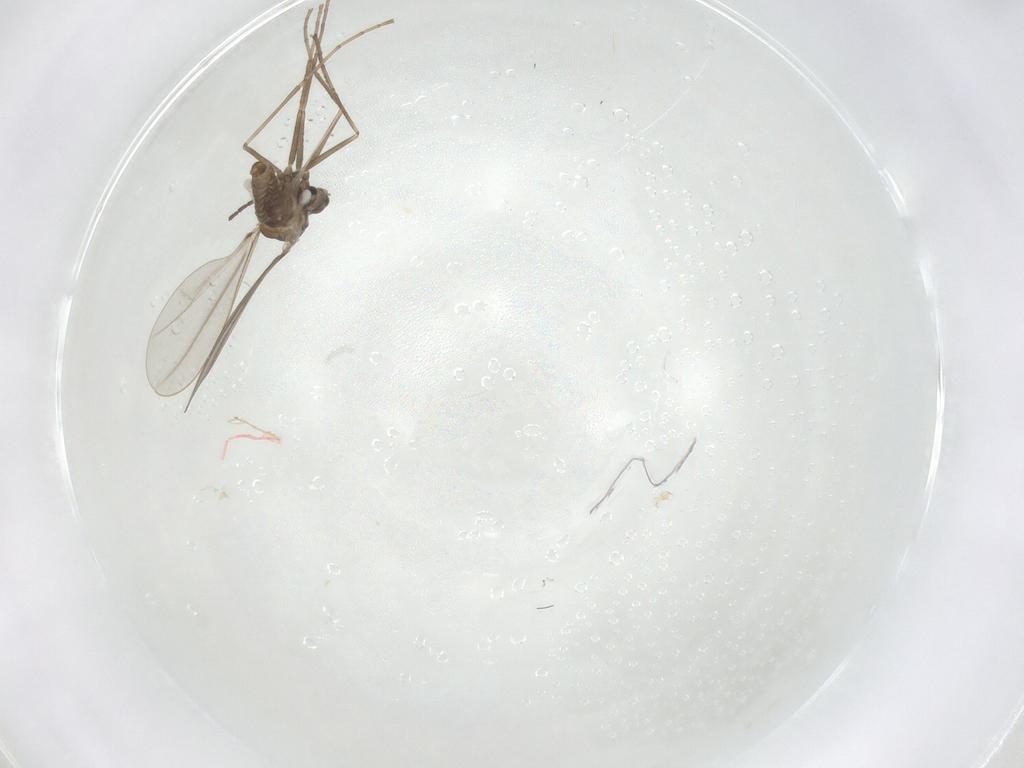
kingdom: Animalia
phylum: Arthropoda
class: Insecta
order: Diptera
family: Cecidomyiidae
